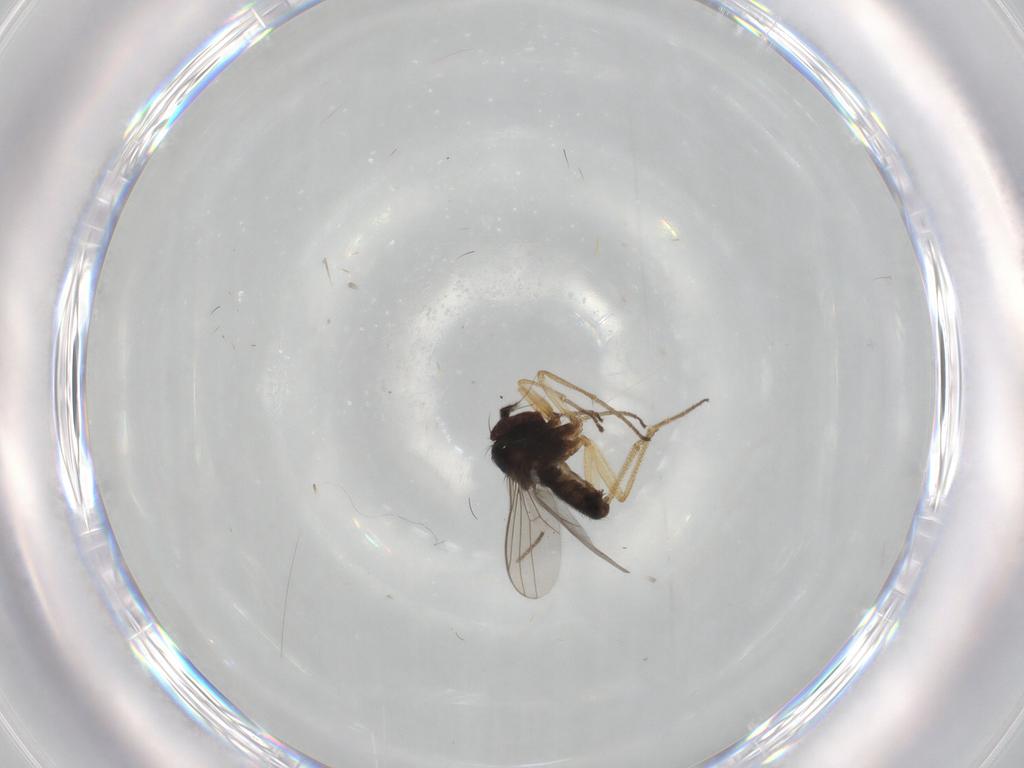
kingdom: Animalia
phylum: Arthropoda
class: Insecta
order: Diptera
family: Dolichopodidae
